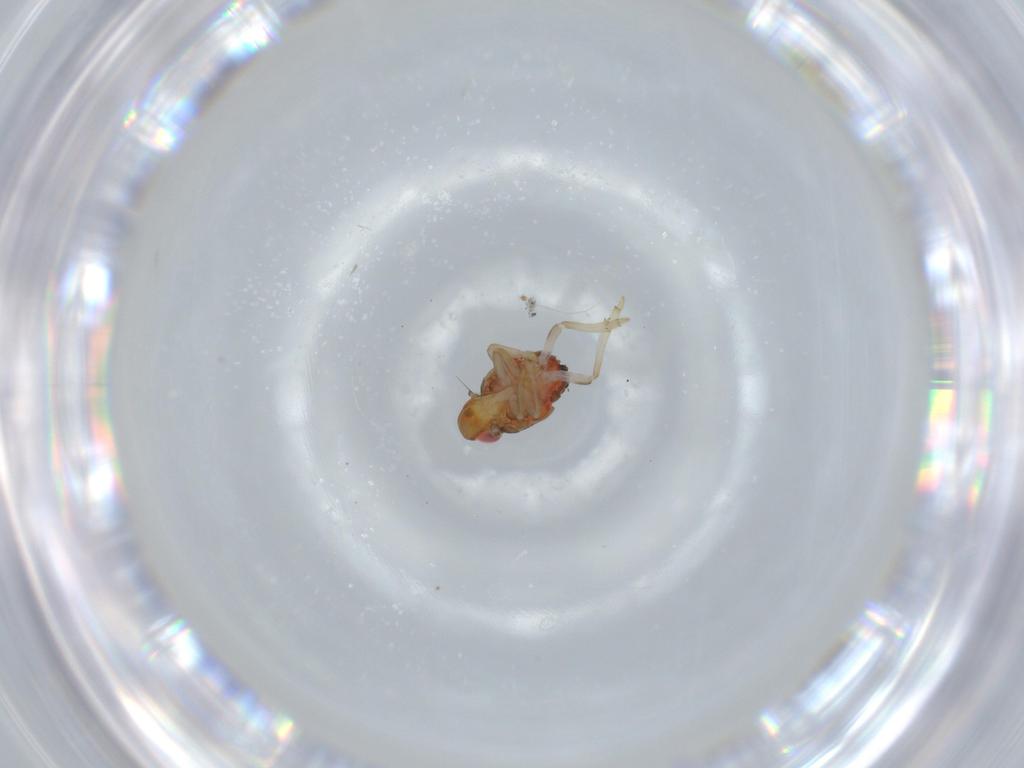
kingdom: Animalia
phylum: Arthropoda
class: Insecta
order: Hemiptera
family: Issidae
